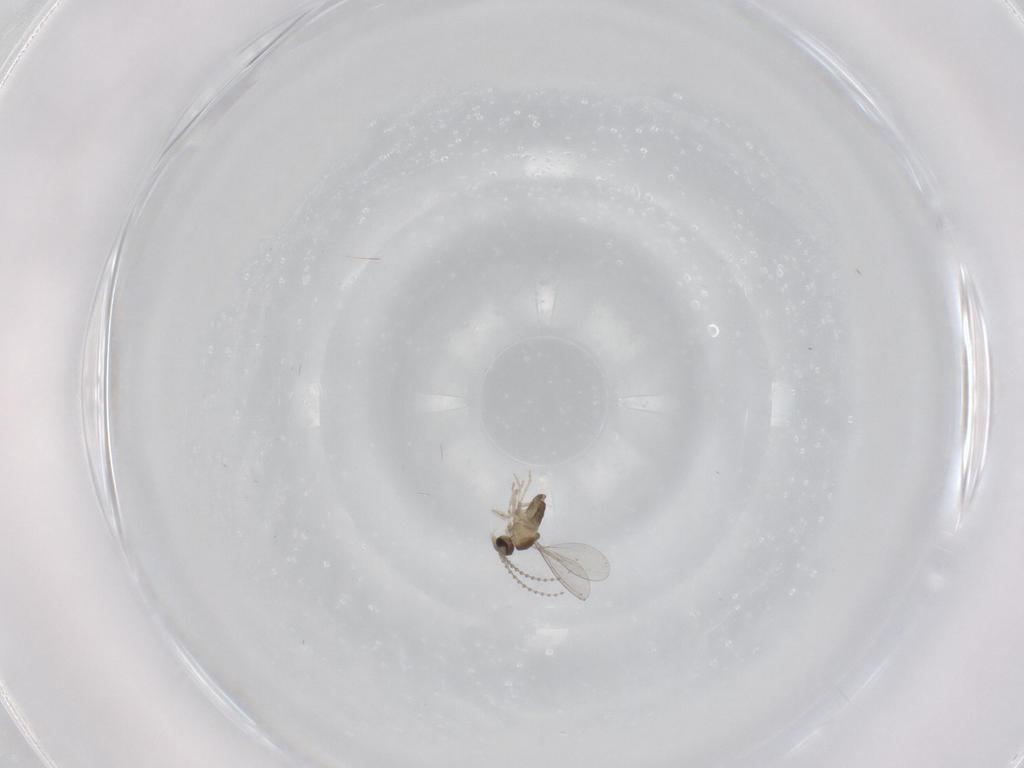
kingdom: Animalia
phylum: Arthropoda
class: Insecta
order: Diptera
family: Cecidomyiidae
